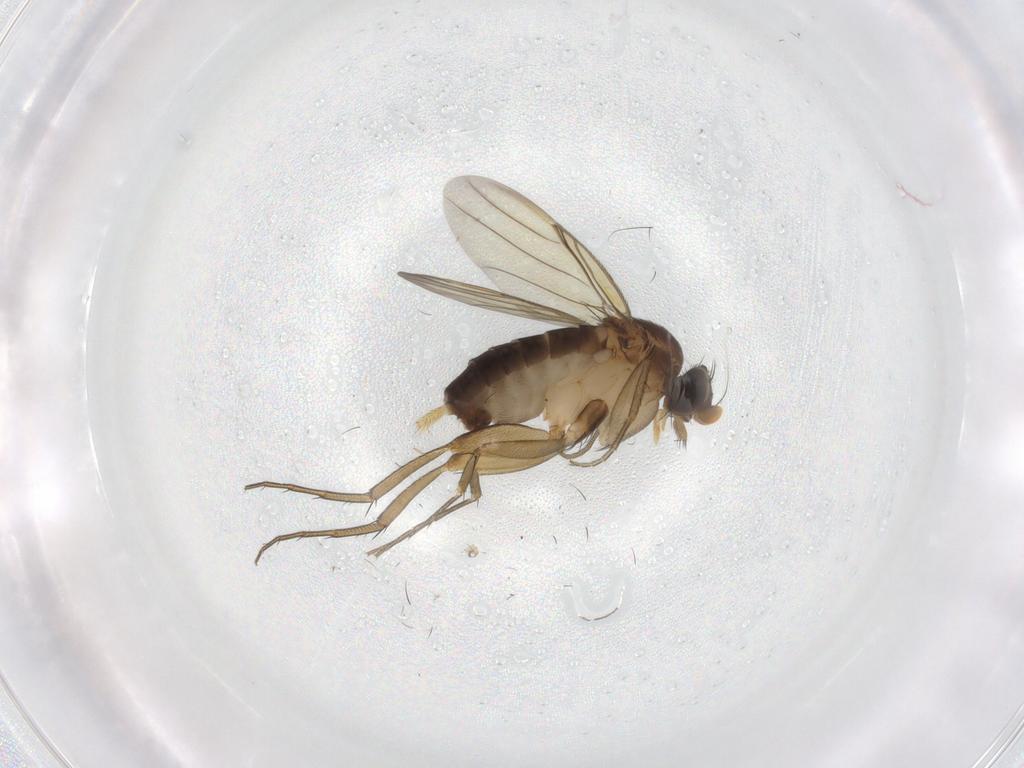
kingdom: Animalia
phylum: Arthropoda
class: Insecta
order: Diptera
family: Phoridae
